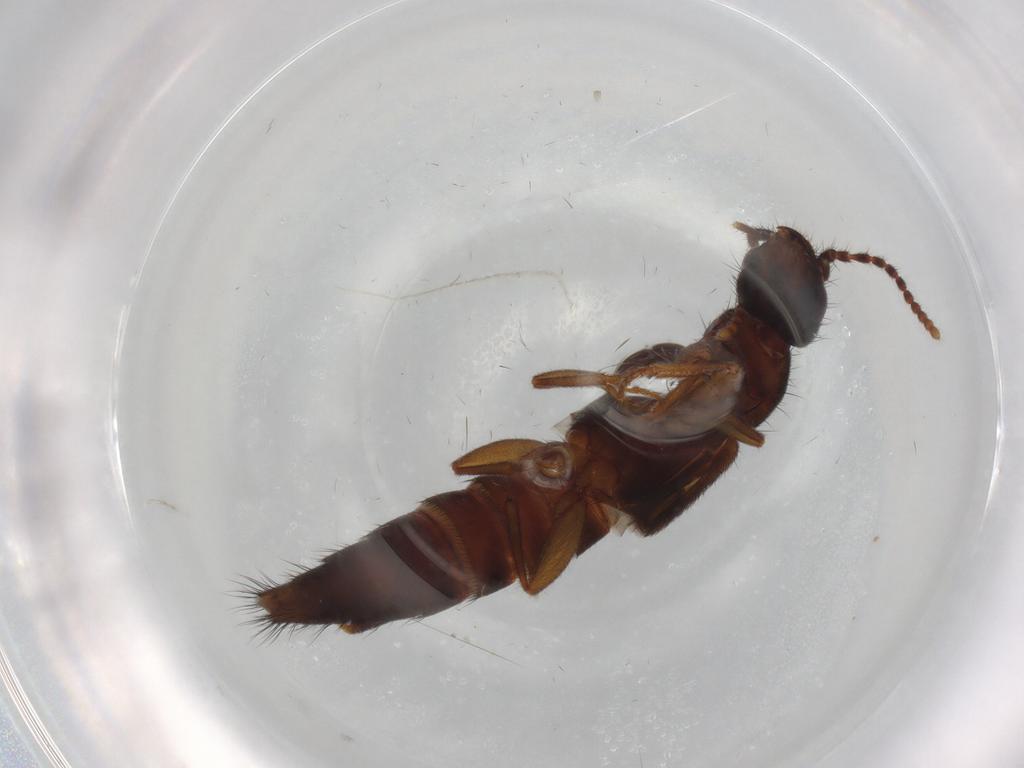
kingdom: Animalia
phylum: Arthropoda
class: Insecta
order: Coleoptera
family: Staphylinidae
